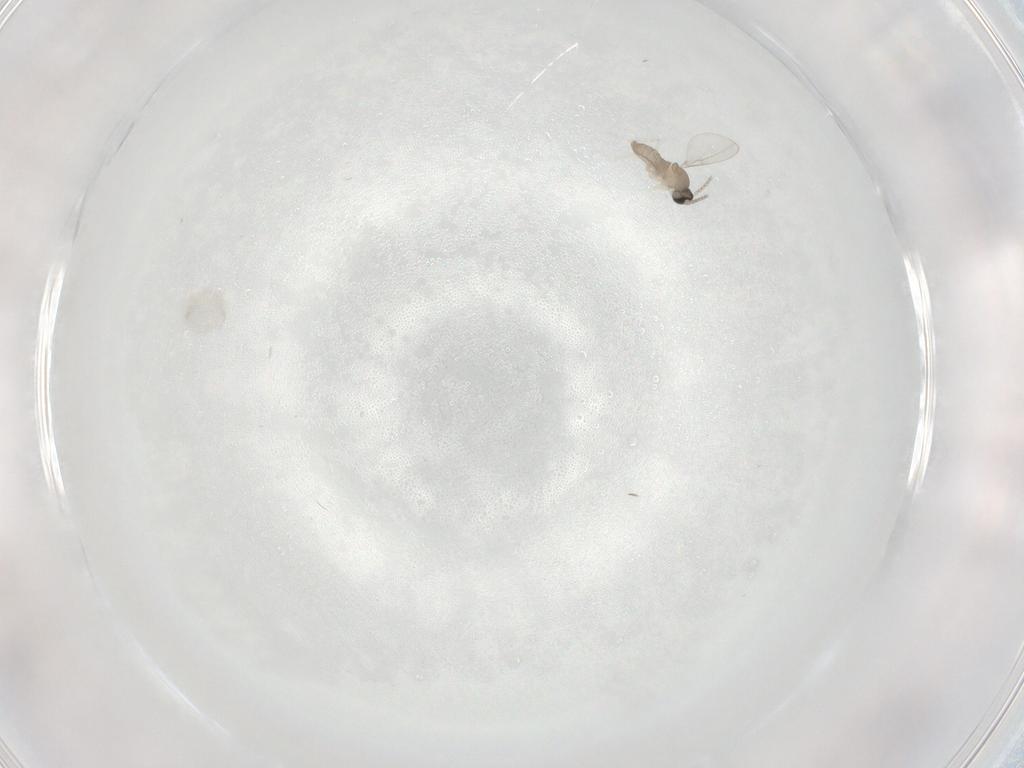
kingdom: Animalia
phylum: Arthropoda
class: Insecta
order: Diptera
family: Cecidomyiidae
